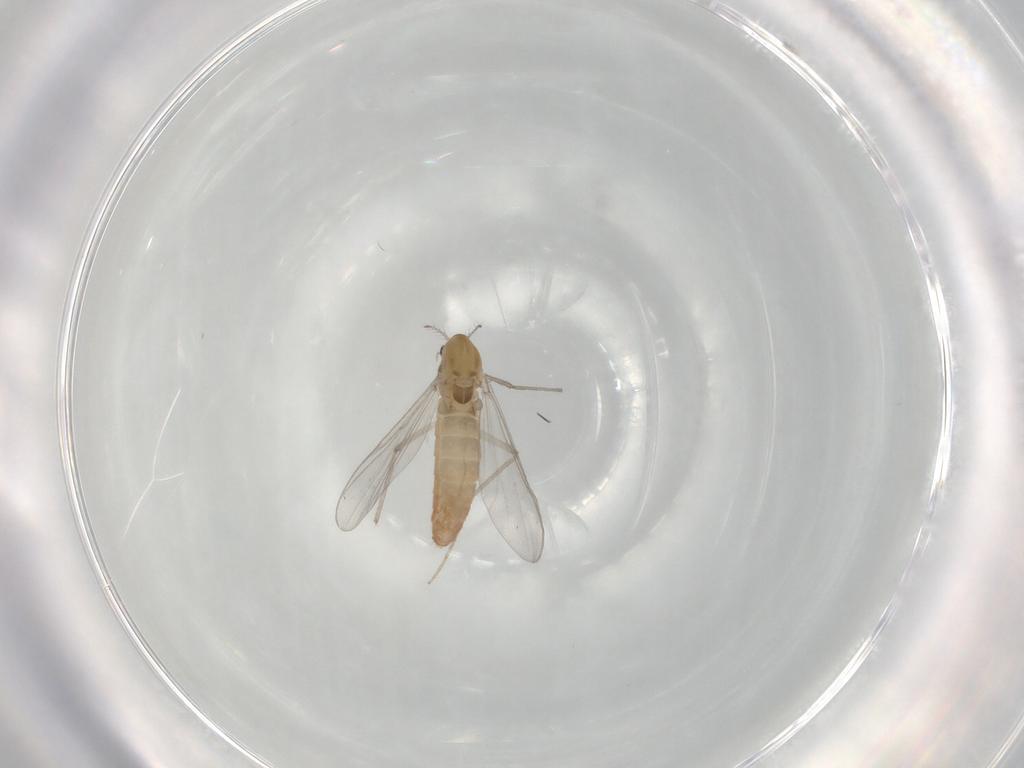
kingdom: Animalia
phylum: Arthropoda
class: Insecta
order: Diptera
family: Chironomidae
